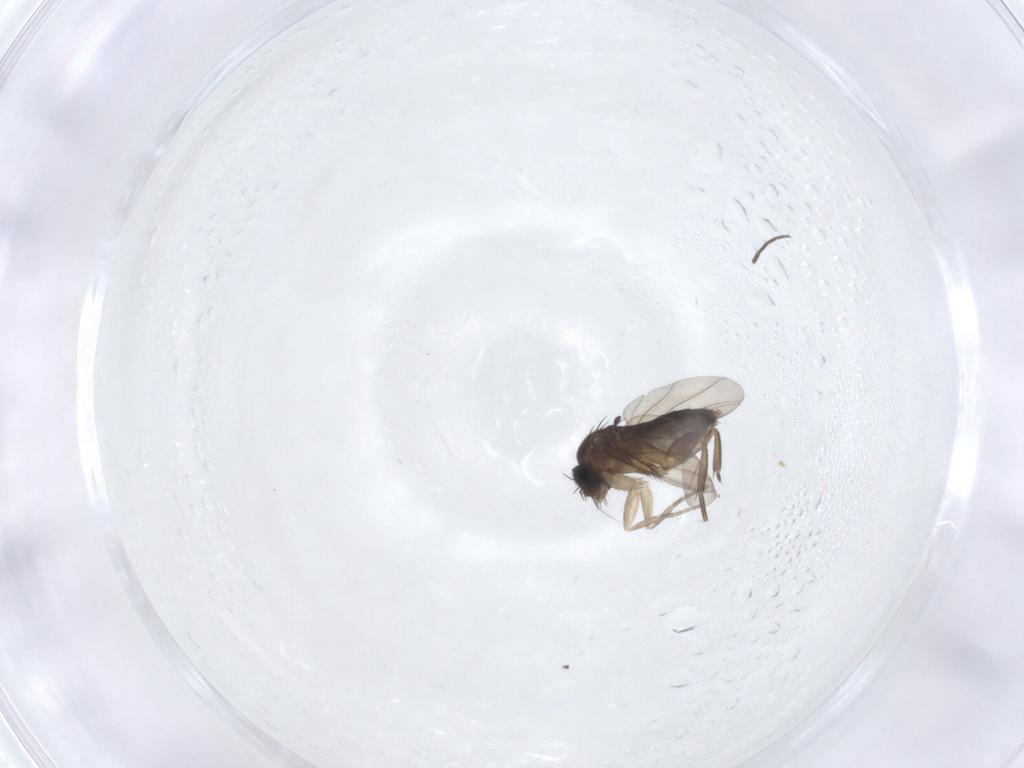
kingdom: Animalia
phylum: Arthropoda
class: Insecta
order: Diptera
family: Phoridae
